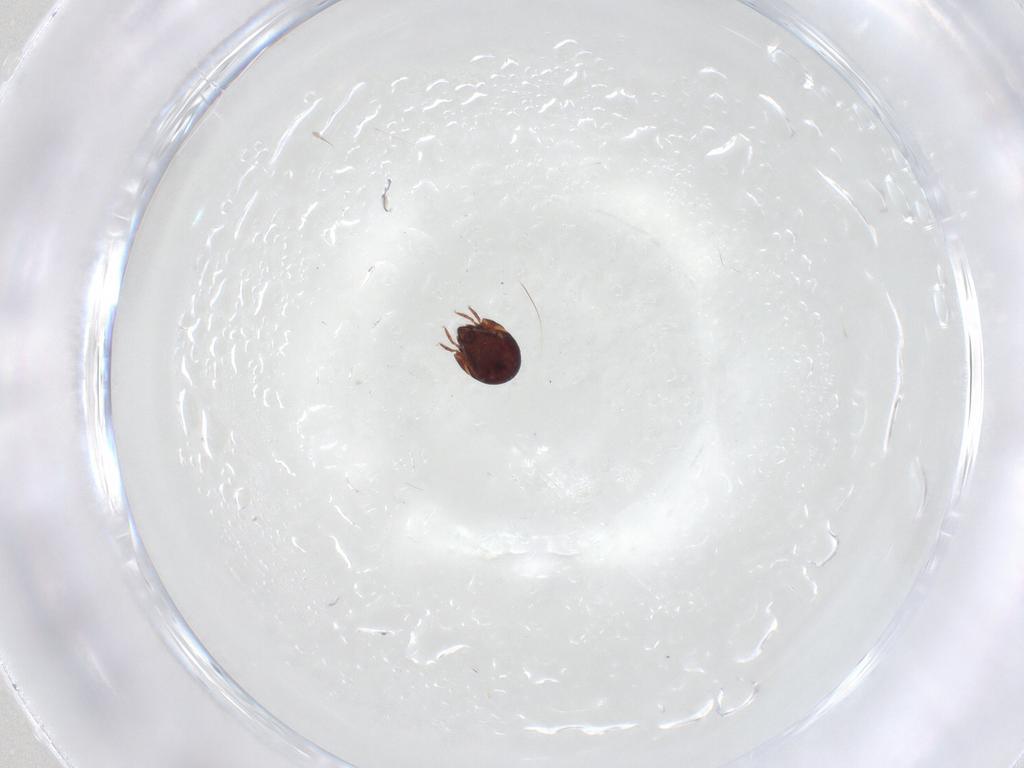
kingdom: Animalia
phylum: Arthropoda
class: Arachnida
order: Sarcoptiformes
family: Humerobatidae
